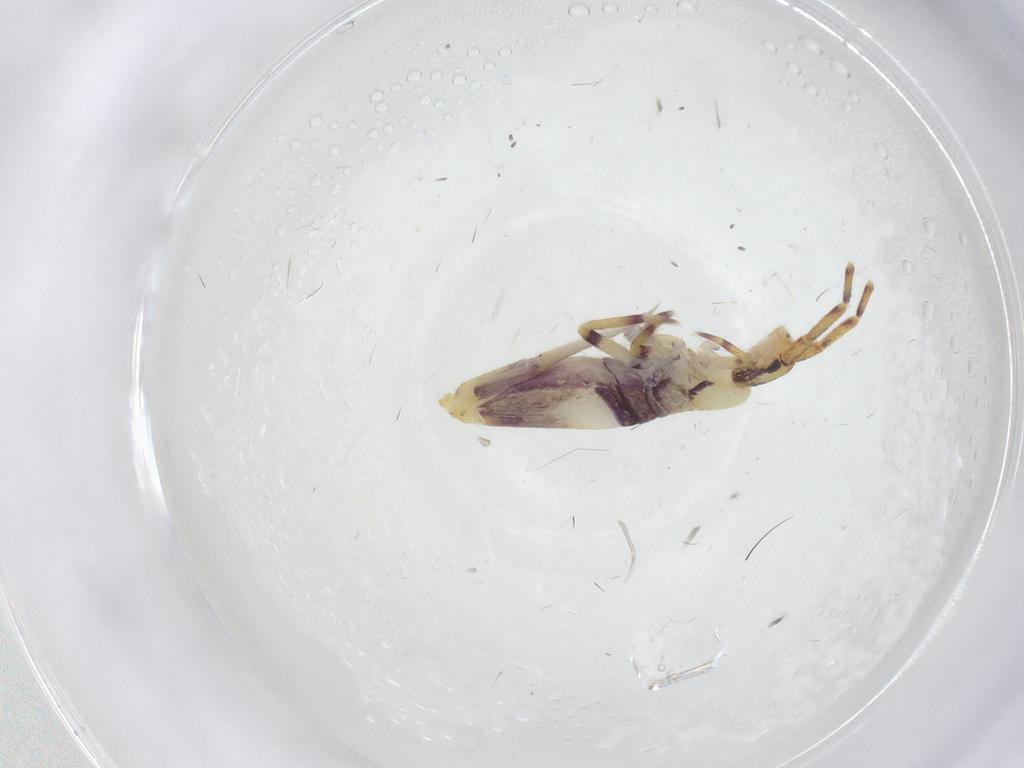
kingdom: Animalia
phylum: Arthropoda
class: Collembola
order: Entomobryomorpha
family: Entomobryidae
